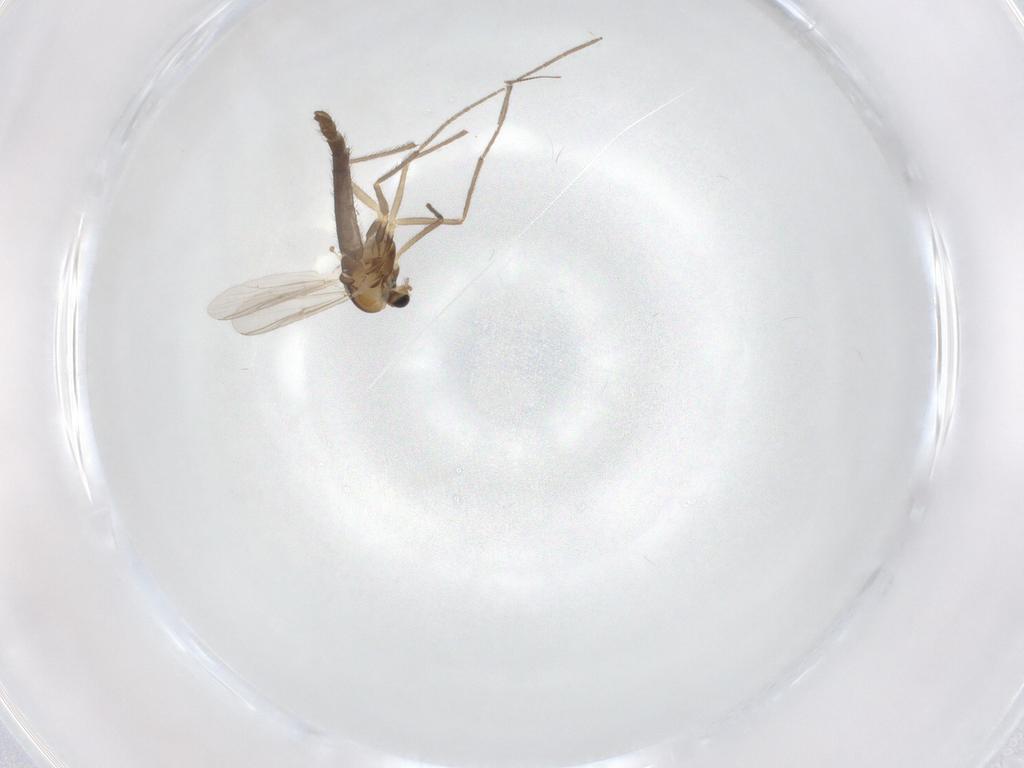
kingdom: Animalia
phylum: Arthropoda
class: Insecta
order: Diptera
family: Chironomidae
